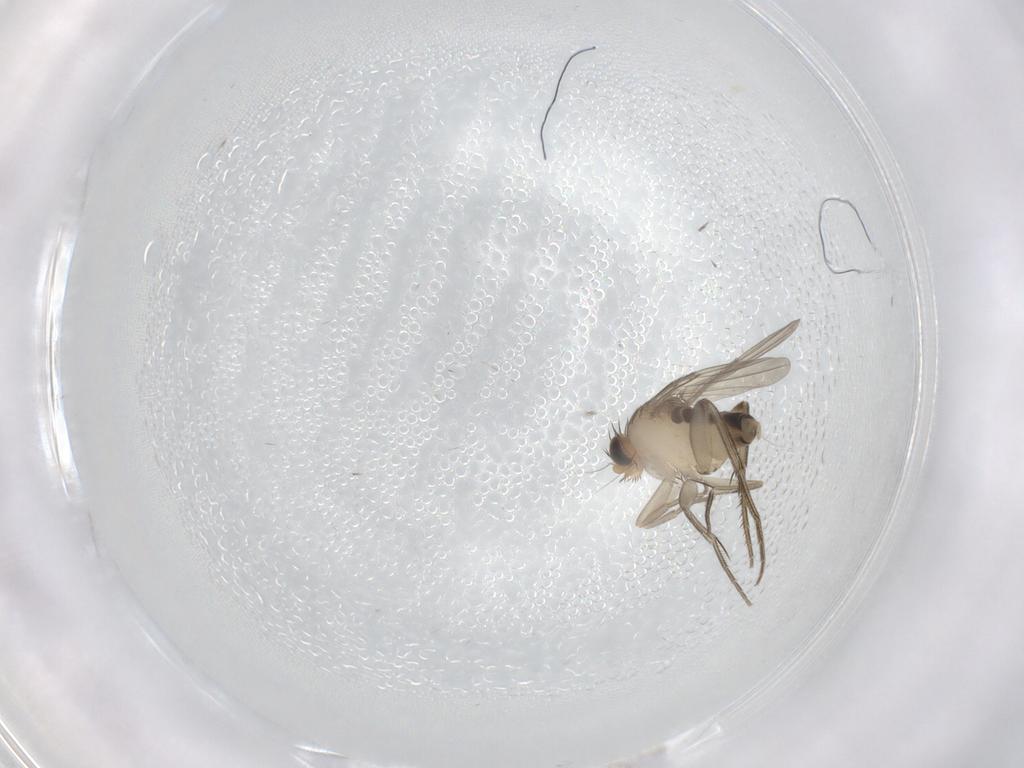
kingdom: Animalia
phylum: Arthropoda
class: Insecta
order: Diptera
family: Phoridae
